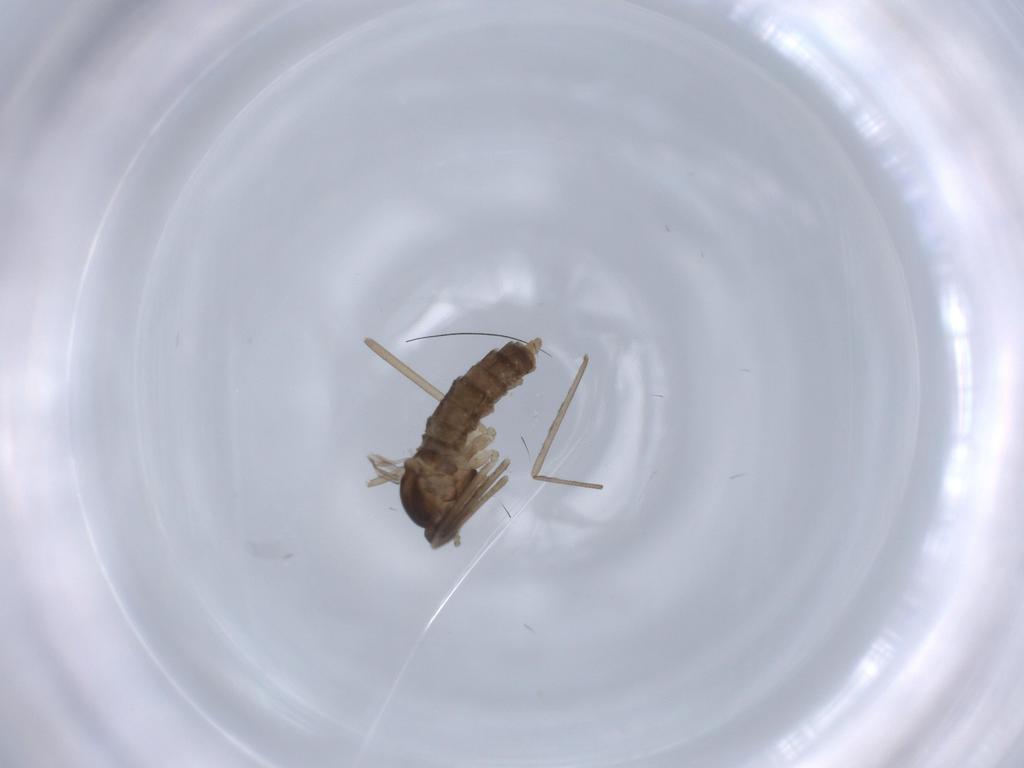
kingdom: Animalia
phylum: Arthropoda
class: Insecta
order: Diptera
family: Cecidomyiidae
